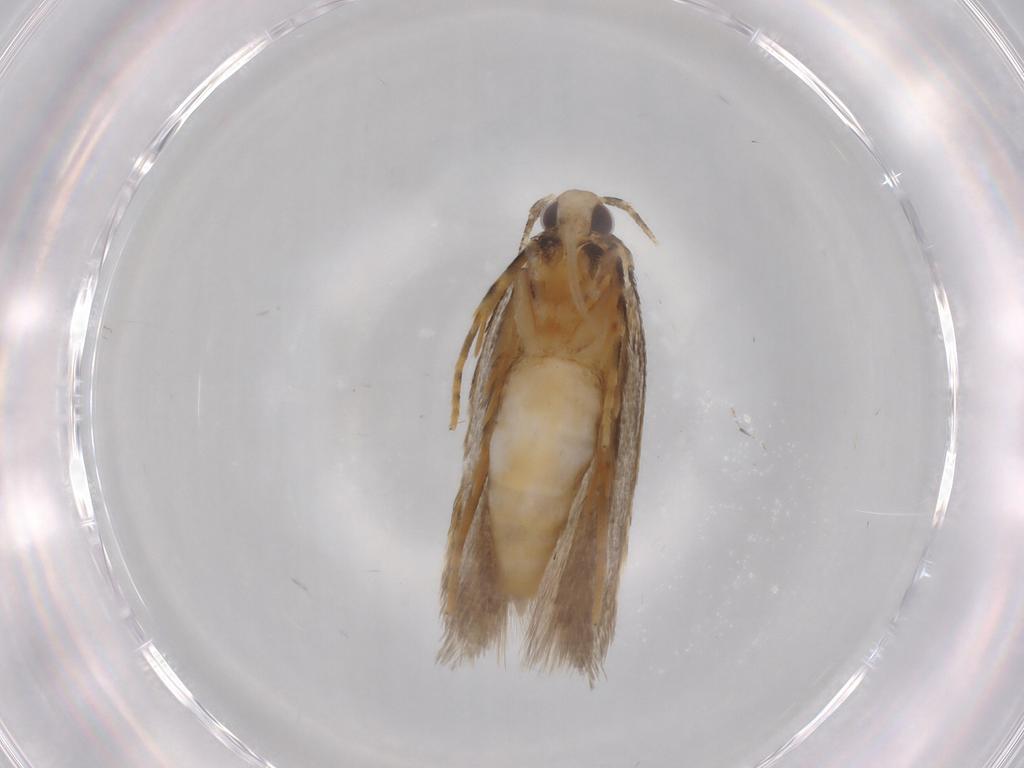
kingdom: Animalia
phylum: Arthropoda
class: Insecta
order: Lepidoptera
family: Autostichidae
